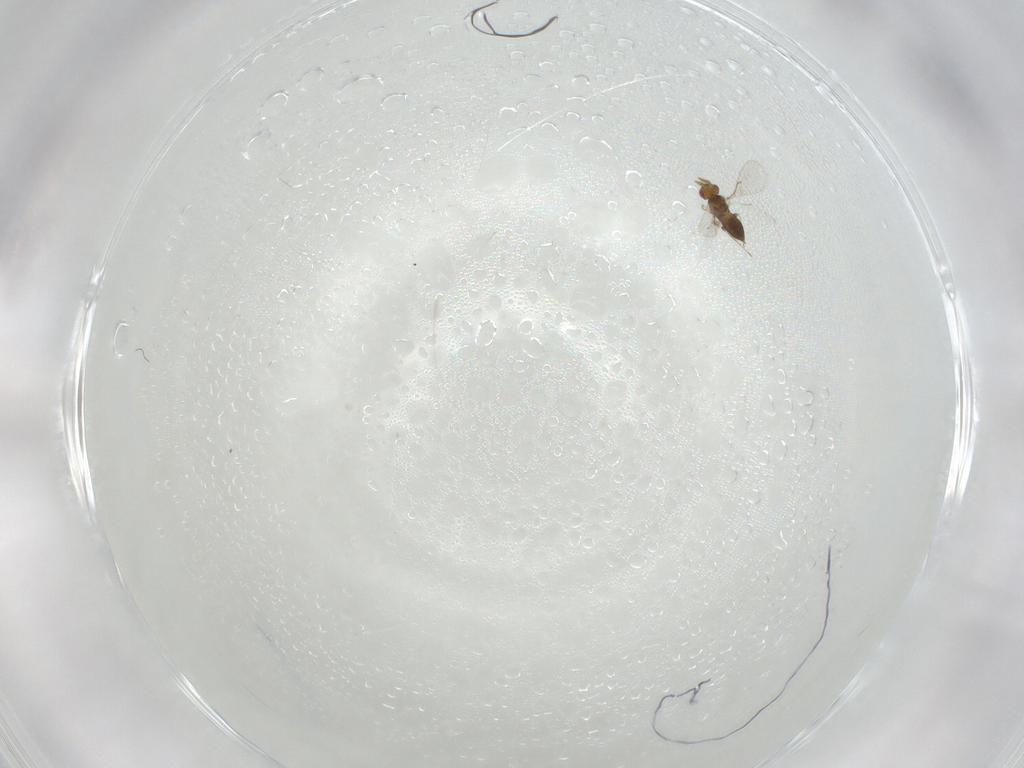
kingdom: Animalia
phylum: Arthropoda
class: Insecta
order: Hymenoptera
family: Trichogrammatidae
